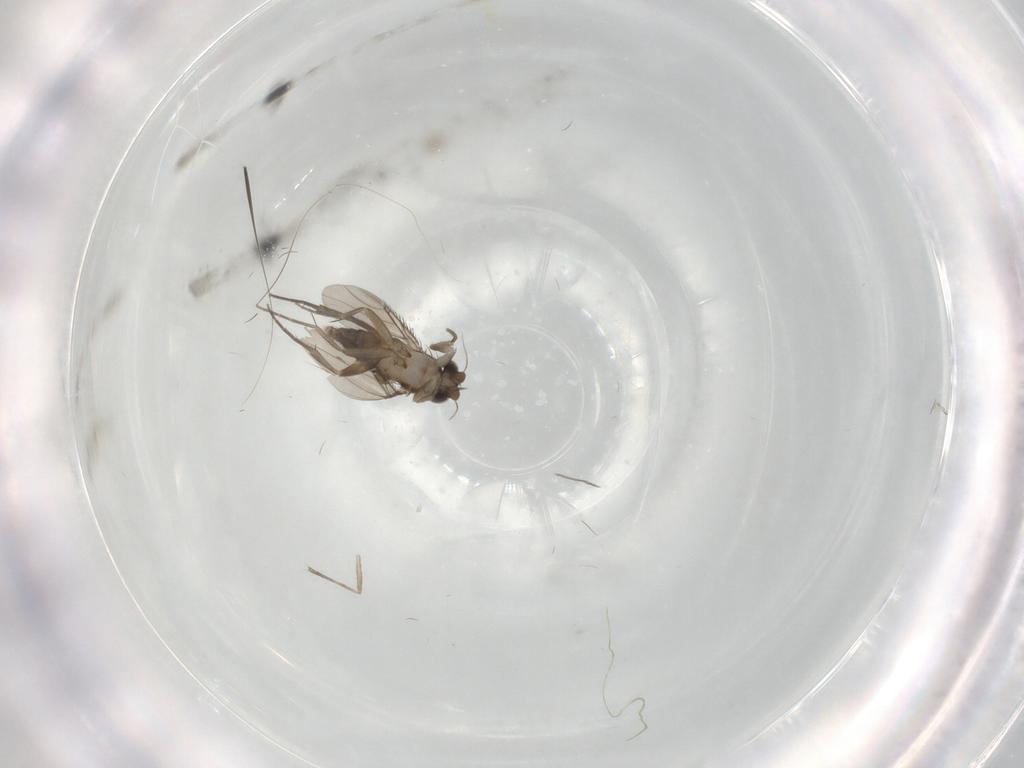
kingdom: Animalia
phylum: Arthropoda
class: Insecta
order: Diptera
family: Phoridae
